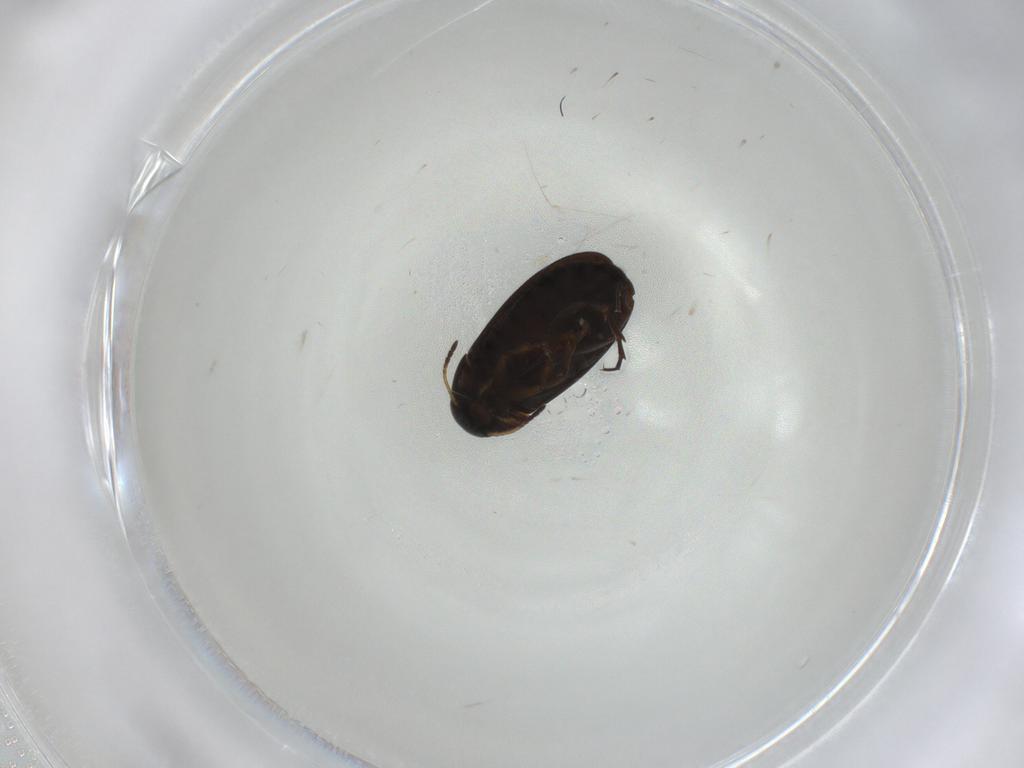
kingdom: Animalia
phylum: Arthropoda
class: Insecta
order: Coleoptera
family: Scraptiidae
